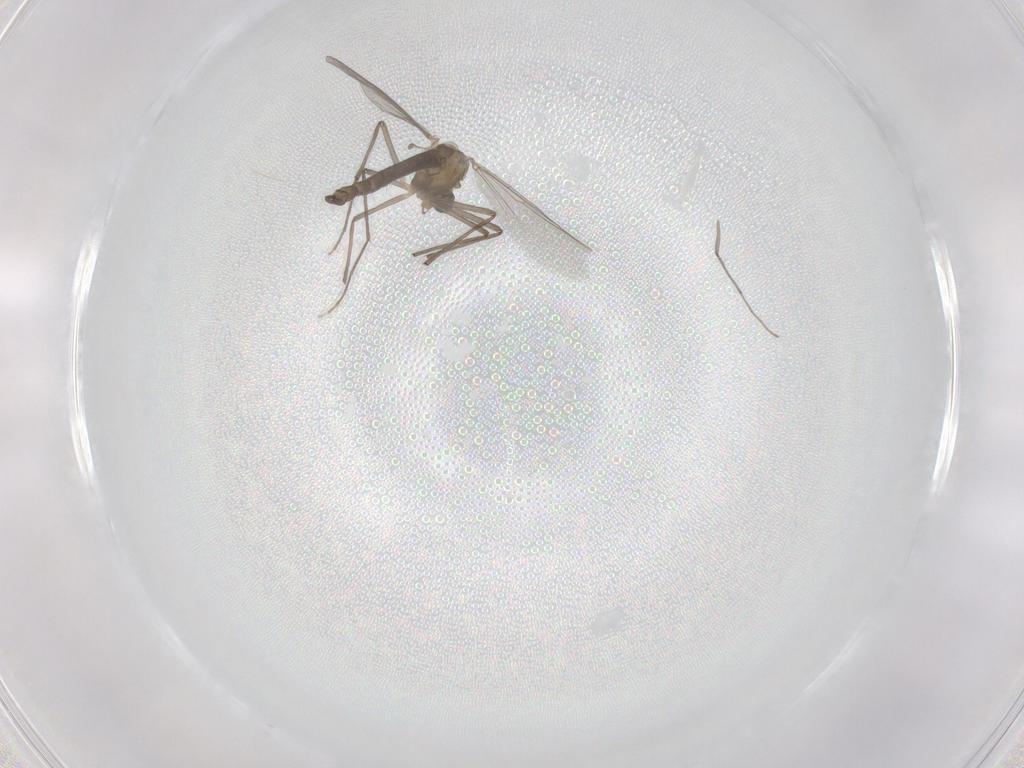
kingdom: Animalia
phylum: Arthropoda
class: Insecta
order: Diptera
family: Chironomidae
